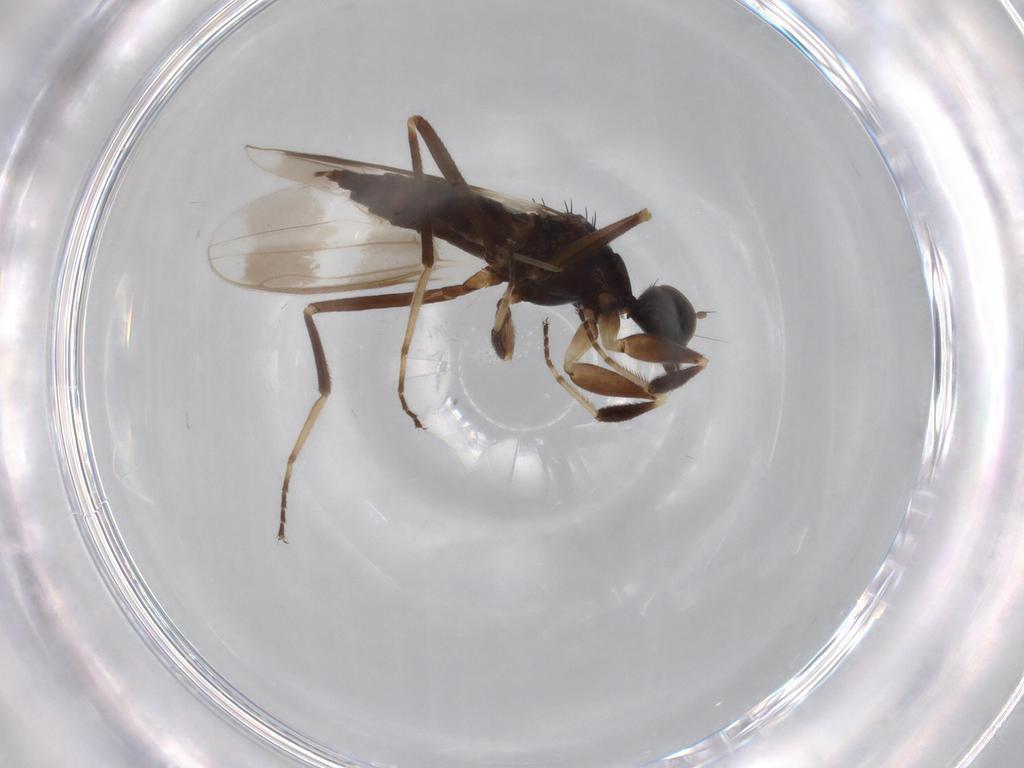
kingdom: Animalia
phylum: Arthropoda
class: Insecta
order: Diptera
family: Hybotidae
